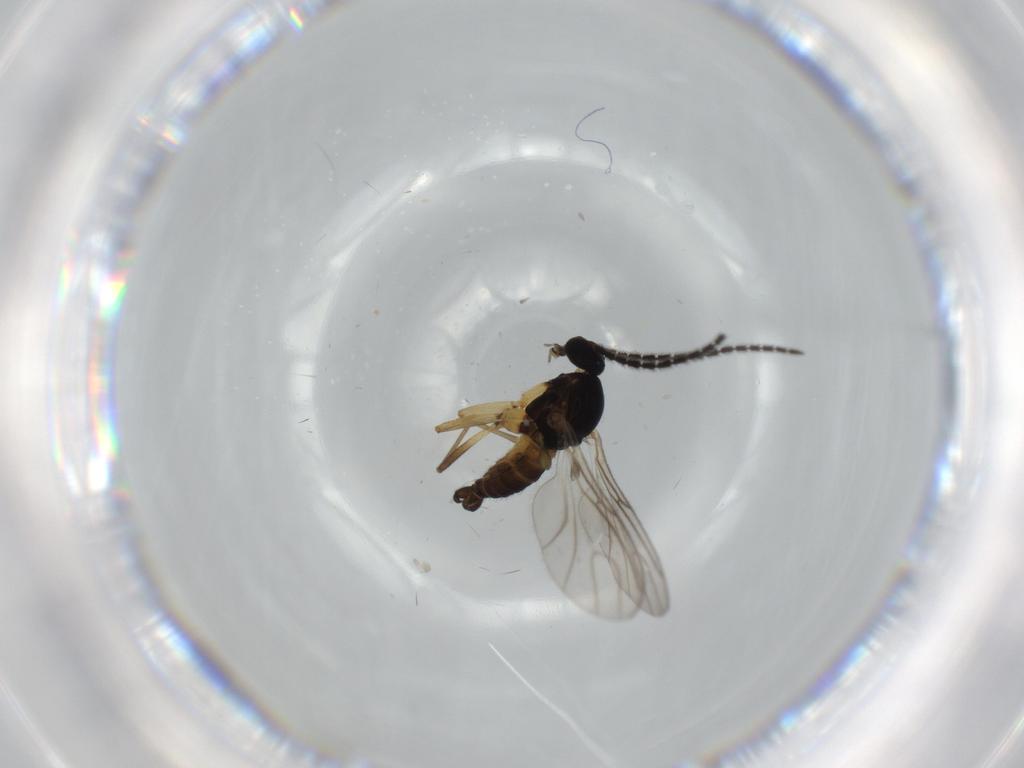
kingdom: Animalia
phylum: Arthropoda
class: Insecta
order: Diptera
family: Sciaridae
